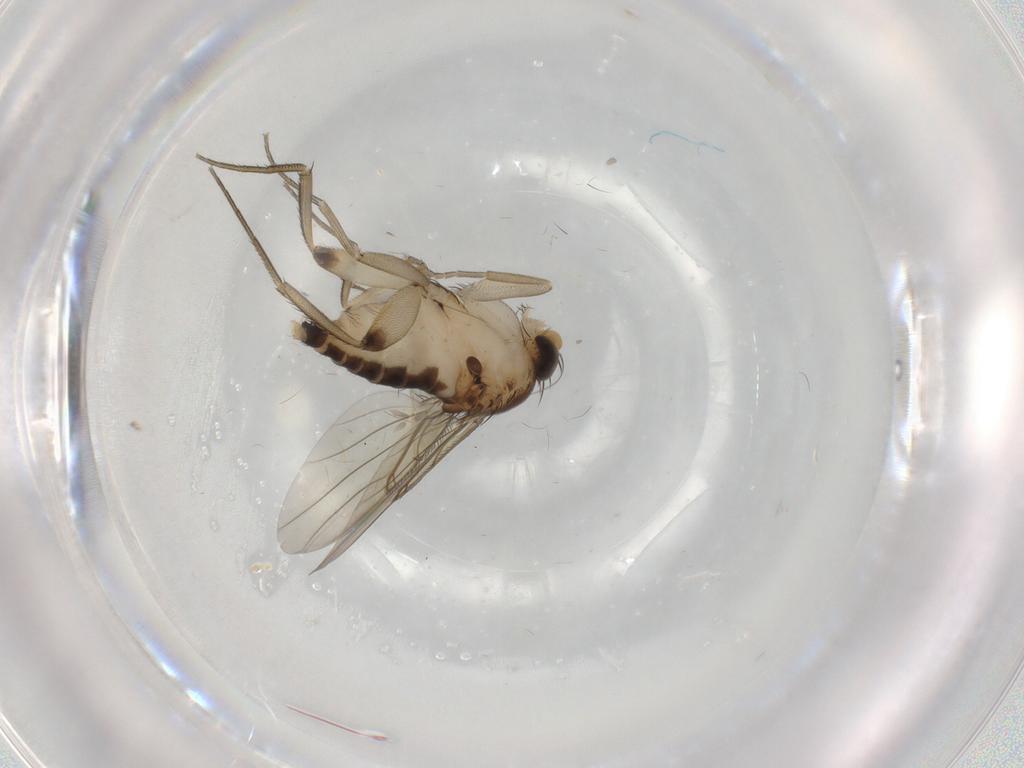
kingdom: Animalia
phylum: Arthropoda
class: Insecta
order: Diptera
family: Phoridae
